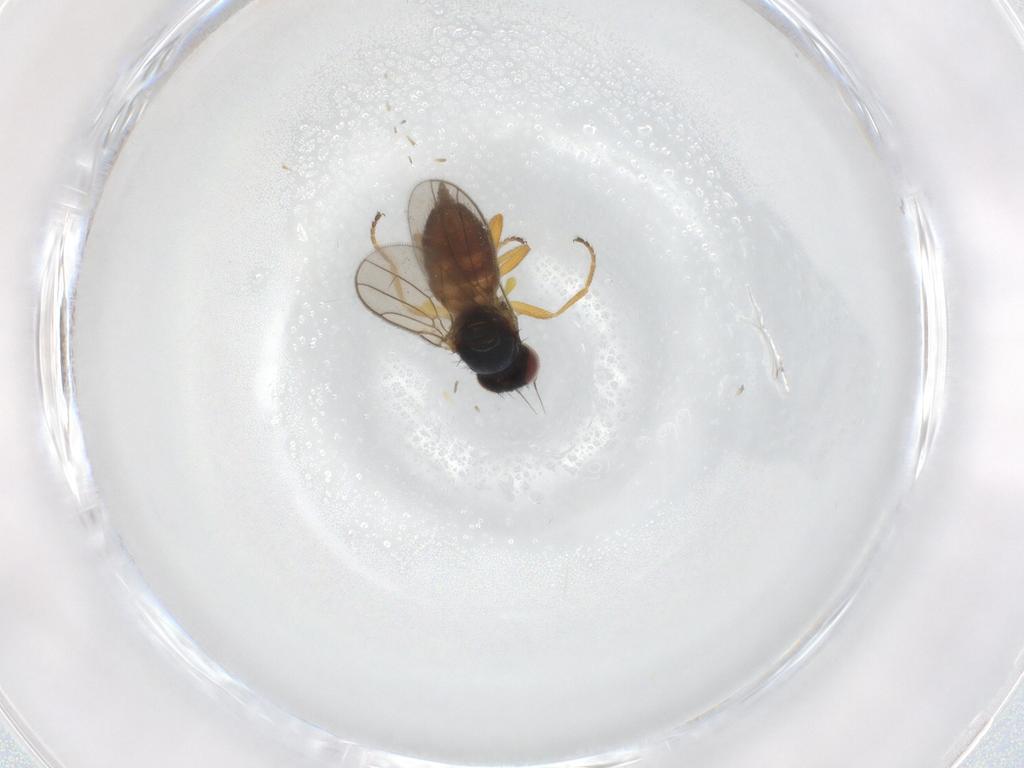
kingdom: Animalia
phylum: Arthropoda
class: Insecta
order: Diptera
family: Chloropidae
